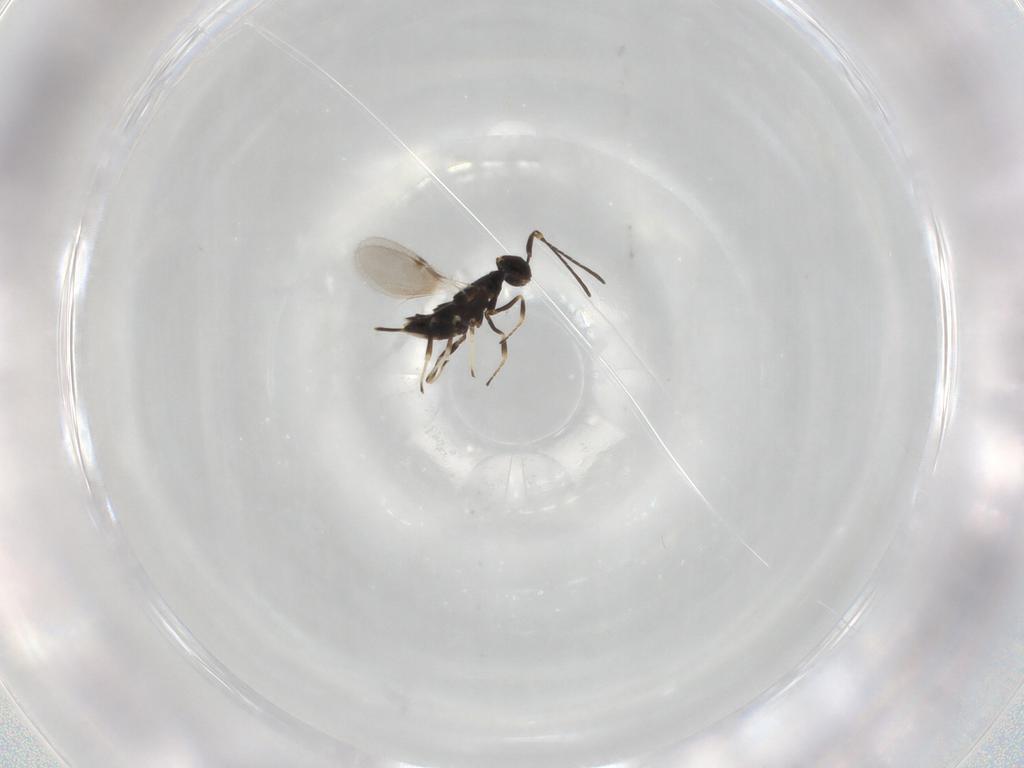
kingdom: Animalia
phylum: Arthropoda
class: Insecta
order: Hymenoptera
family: Encyrtidae
